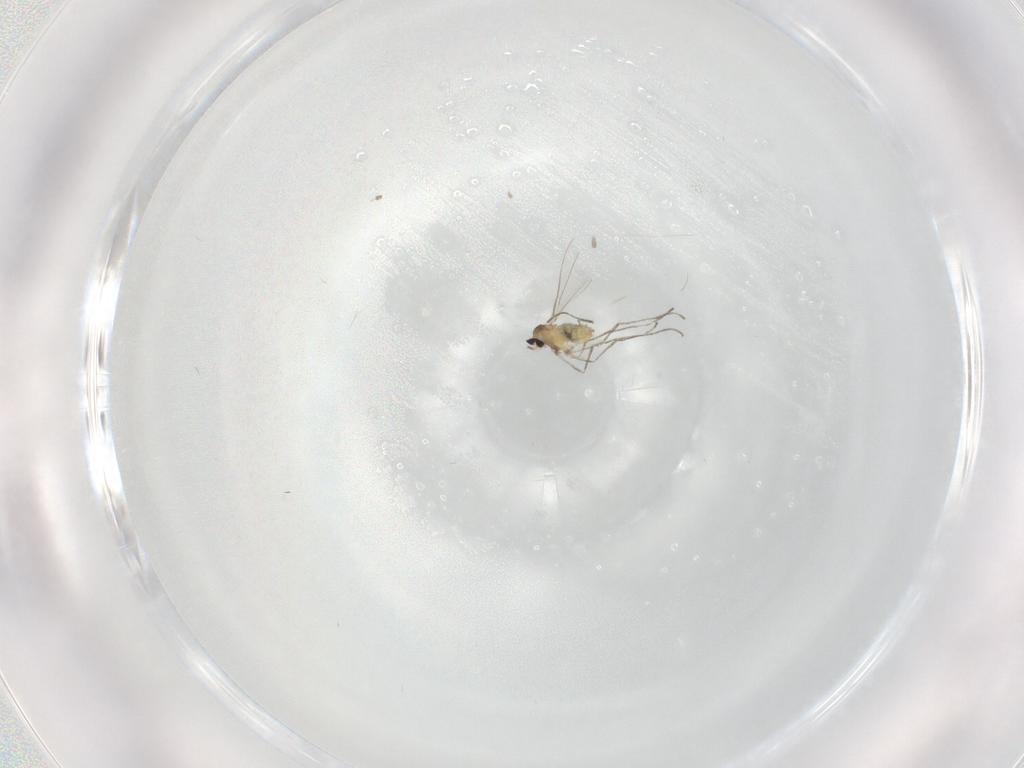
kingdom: Animalia
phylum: Arthropoda
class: Insecta
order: Diptera
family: Cecidomyiidae
